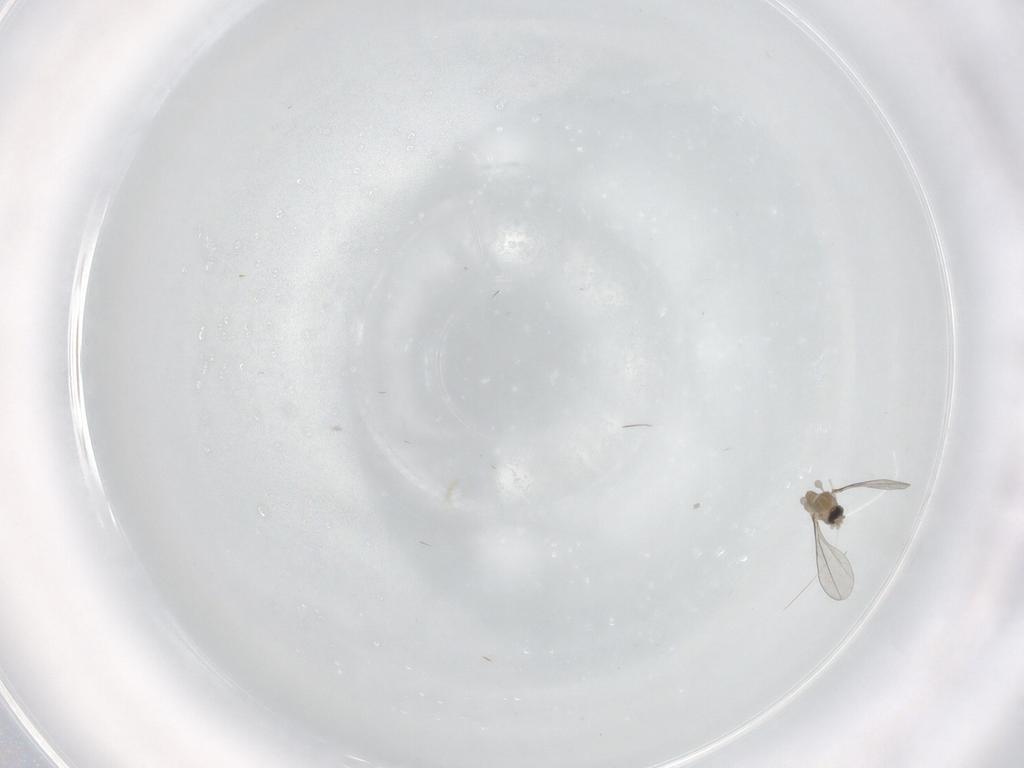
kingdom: Animalia
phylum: Arthropoda
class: Insecta
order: Diptera
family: Cecidomyiidae
